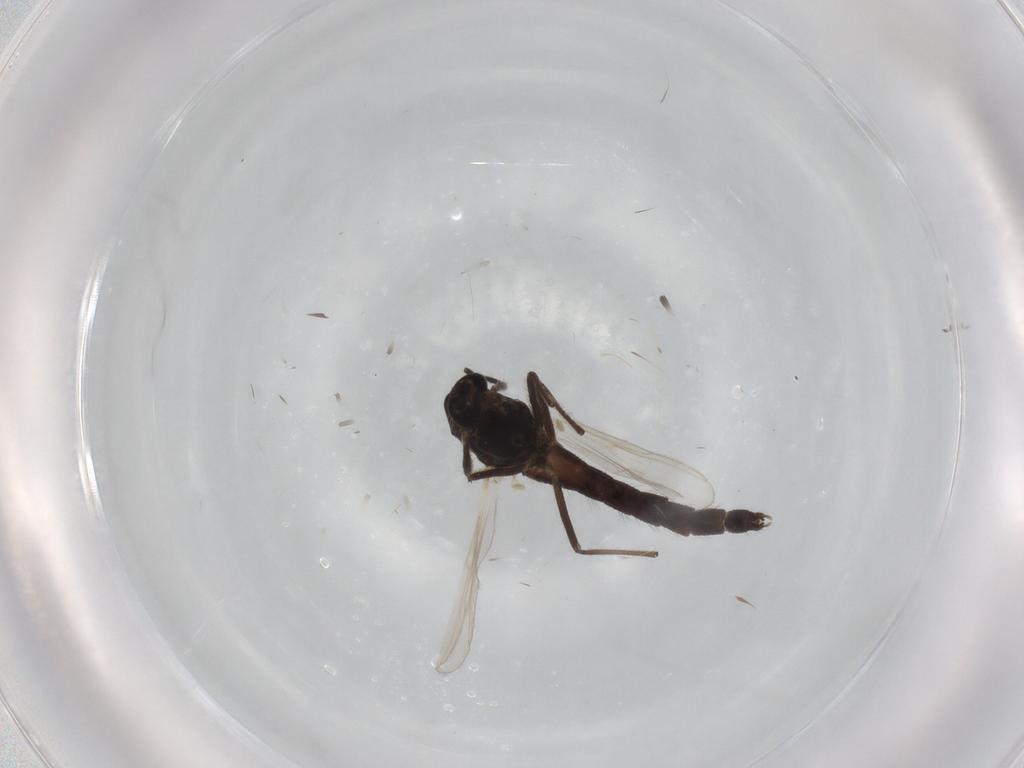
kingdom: Animalia
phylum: Arthropoda
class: Insecta
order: Diptera
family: Chironomidae
